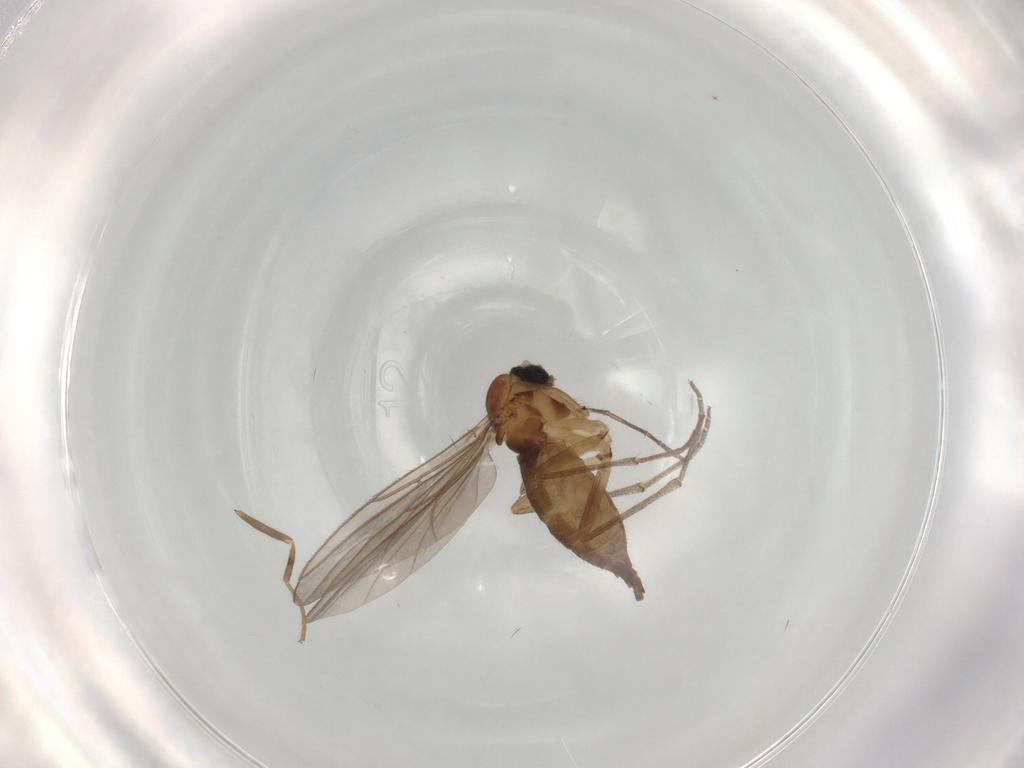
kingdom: Animalia
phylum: Arthropoda
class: Insecta
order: Diptera
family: Sciaridae
